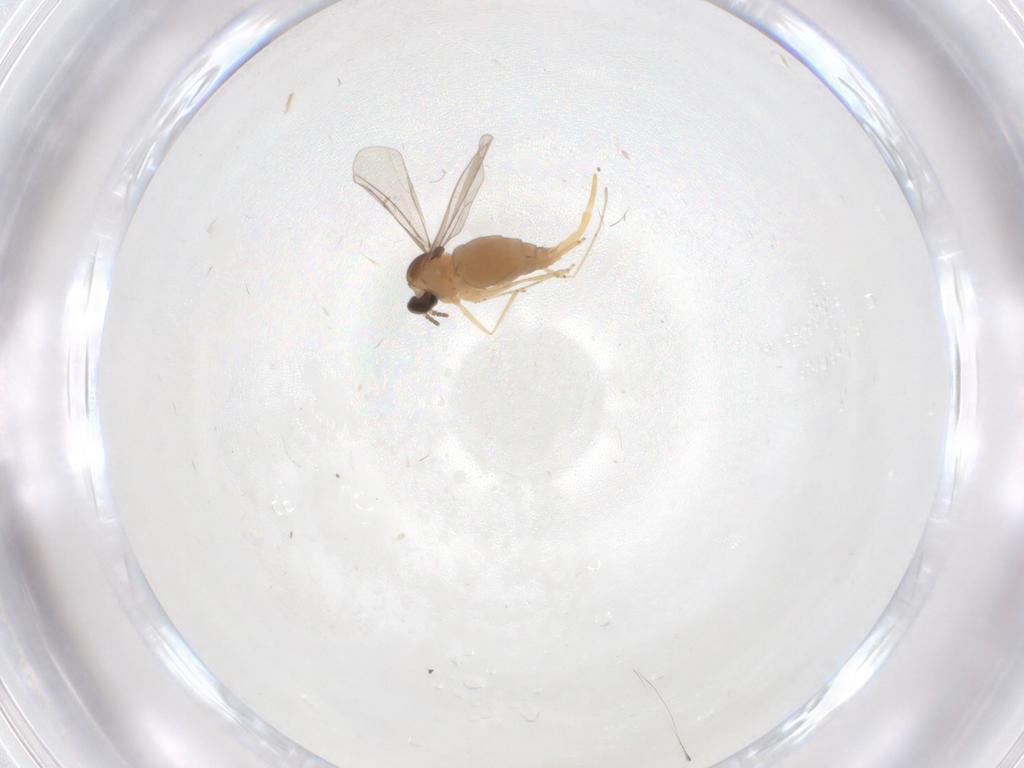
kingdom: Animalia
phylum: Arthropoda
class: Insecta
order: Diptera
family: Cecidomyiidae
